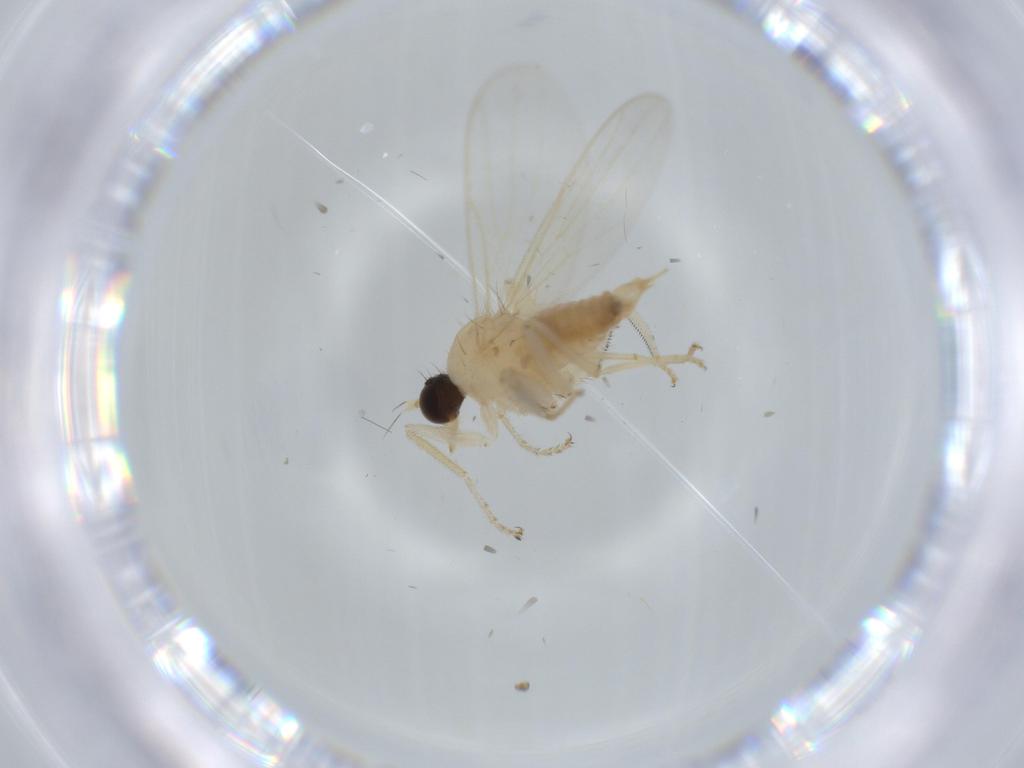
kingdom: Animalia
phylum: Arthropoda
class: Insecta
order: Diptera
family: Hybotidae
